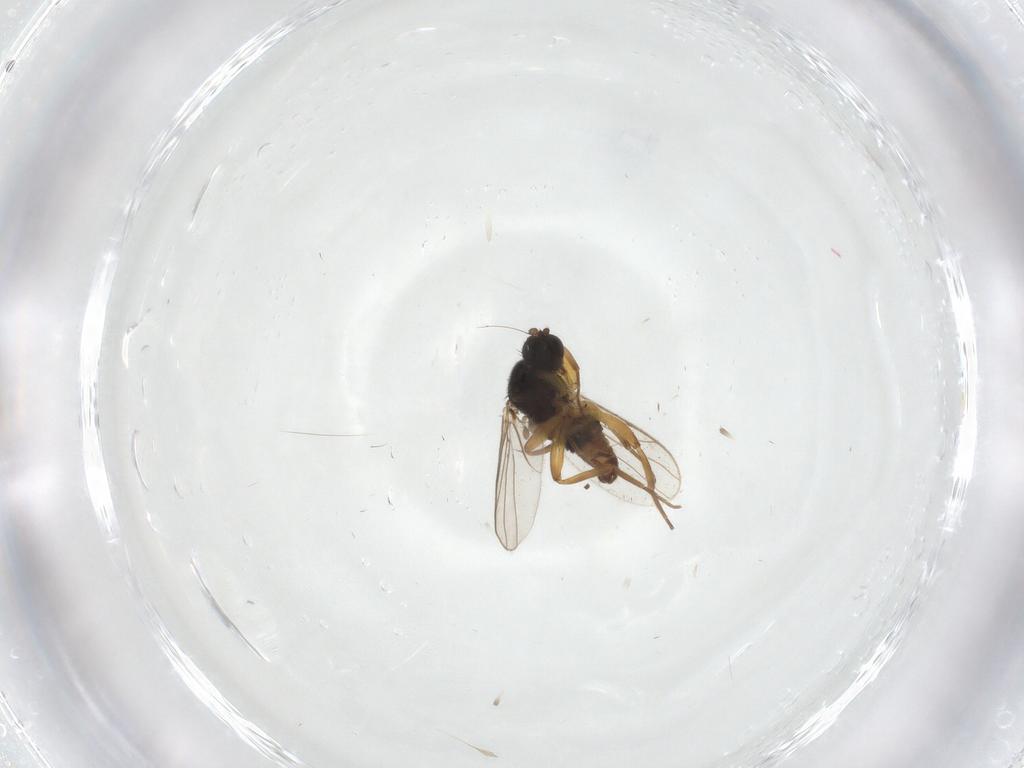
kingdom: Animalia
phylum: Arthropoda
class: Insecta
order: Diptera
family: Hybotidae
